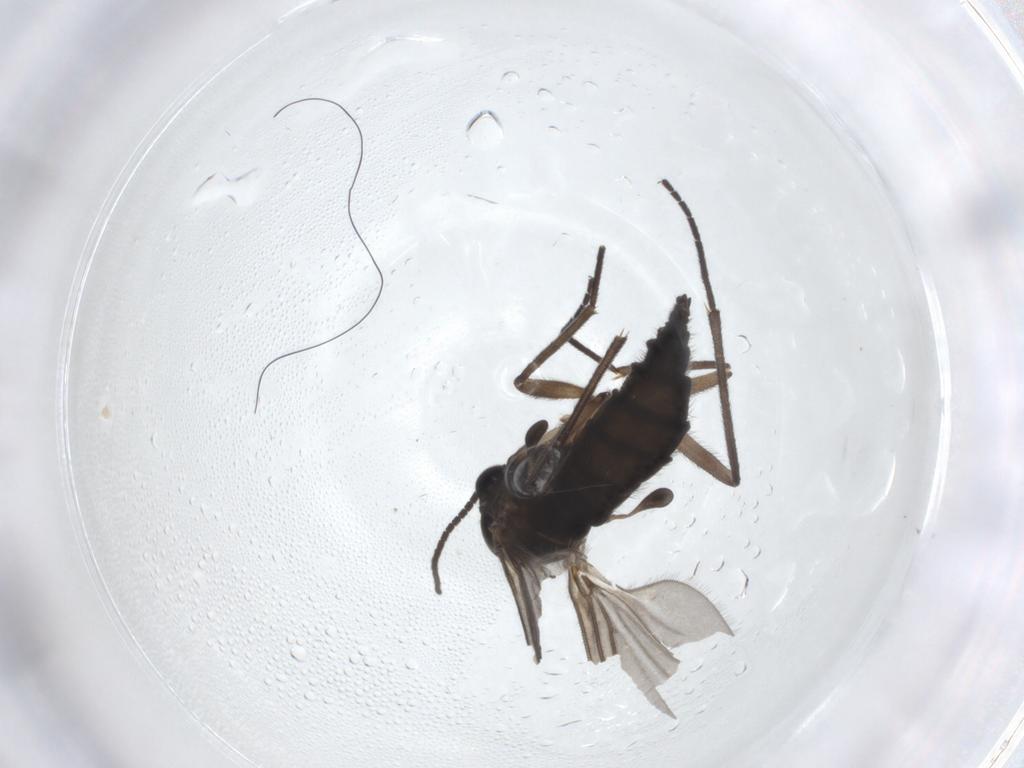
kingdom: Animalia
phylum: Arthropoda
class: Insecta
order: Diptera
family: Sciaridae
